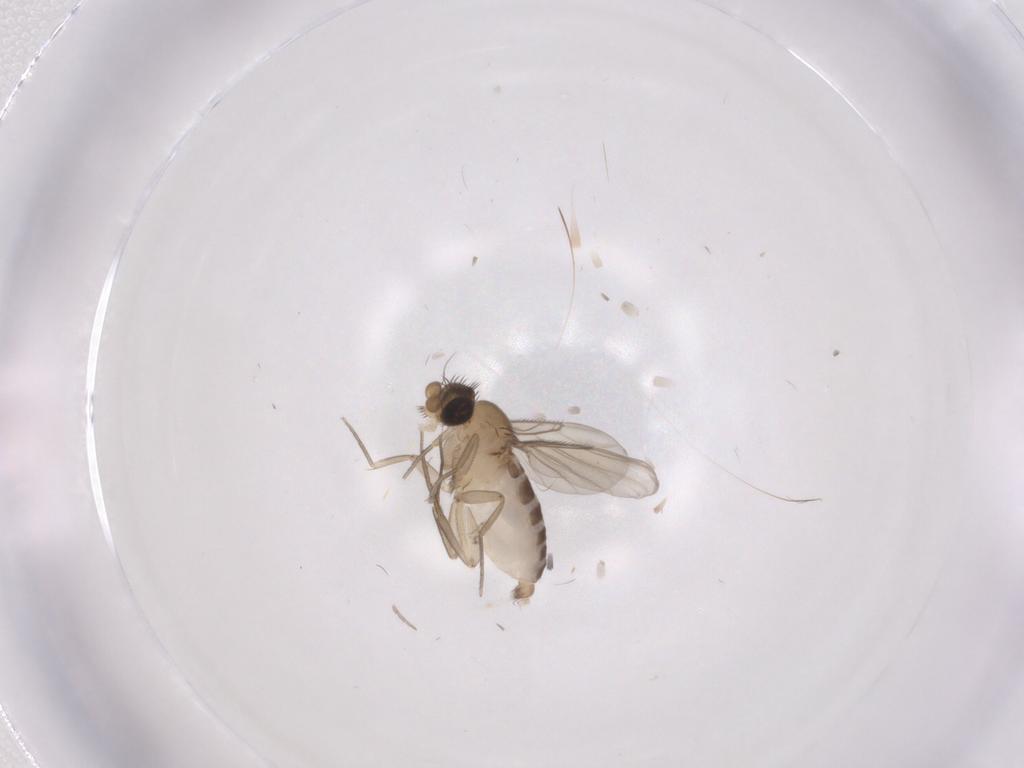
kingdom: Animalia
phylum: Arthropoda
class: Insecta
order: Diptera
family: Phoridae
